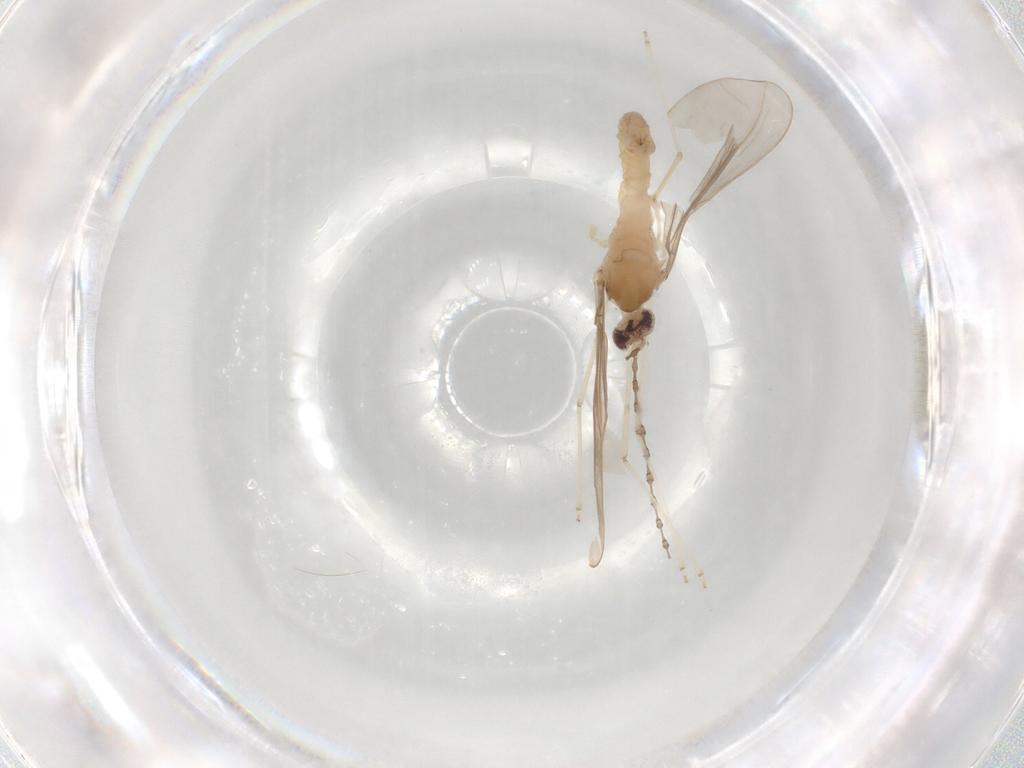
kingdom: Animalia
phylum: Arthropoda
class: Insecta
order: Diptera
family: Cecidomyiidae
